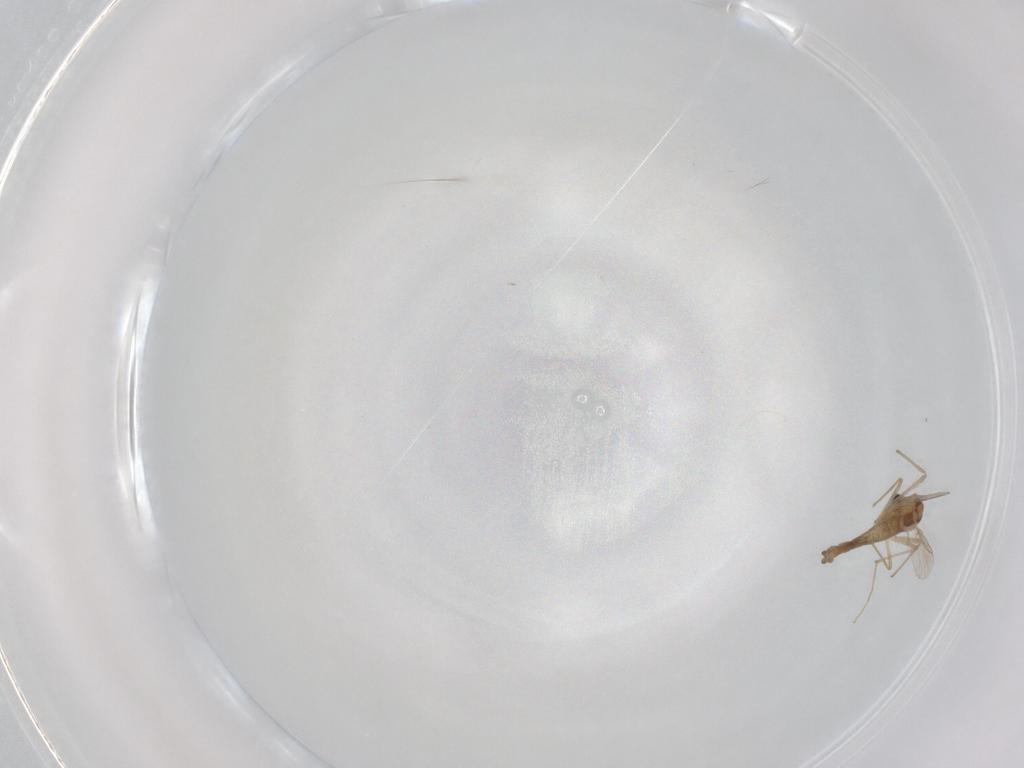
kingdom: Animalia
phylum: Arthropoda
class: Insecta
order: Diptera
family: Chironomidae
